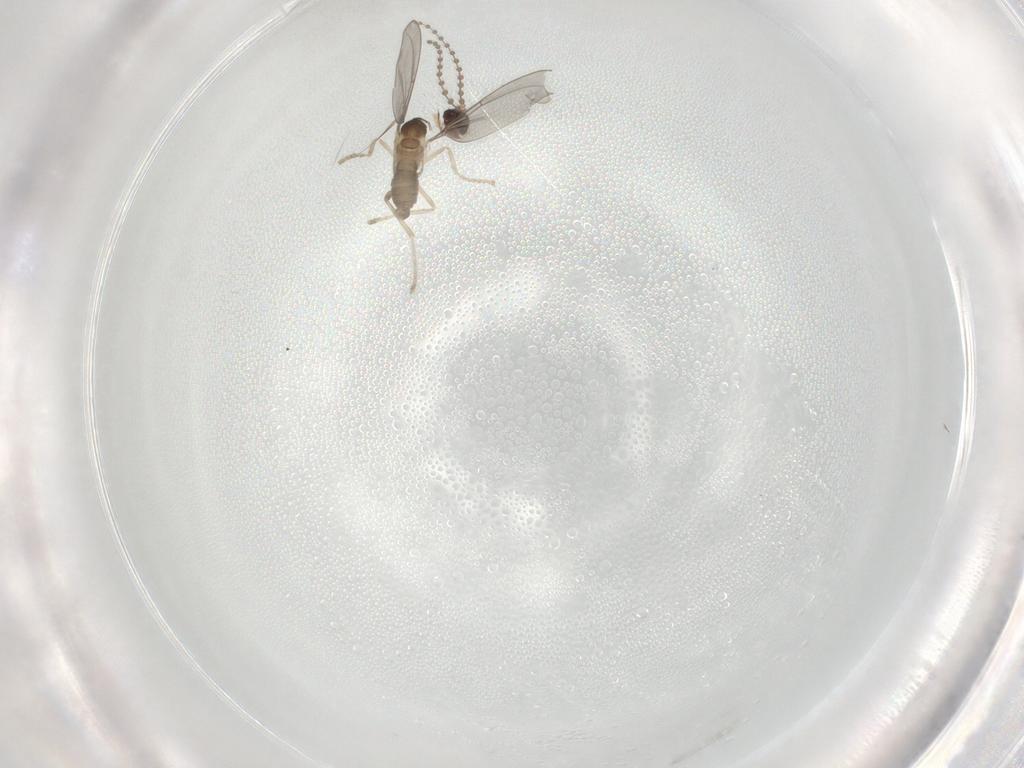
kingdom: Animalia
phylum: Arthropoda
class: Insecta
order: Diptera
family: Cecidomyiidae
